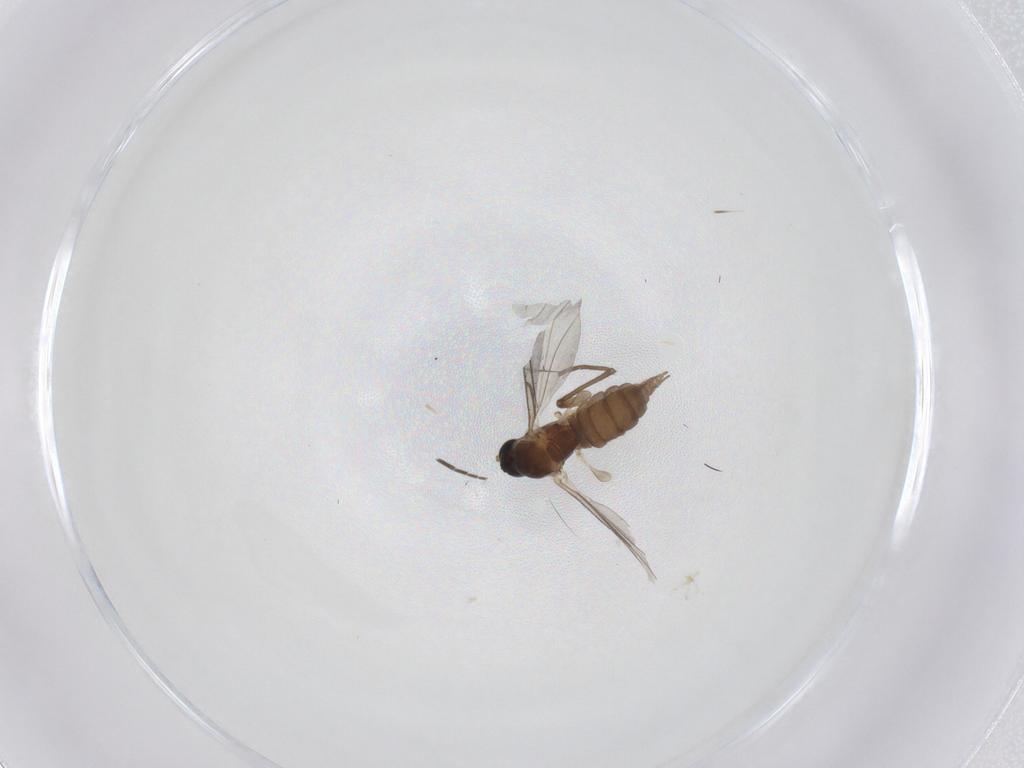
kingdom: Animalia
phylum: Arthropoda
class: Insecta
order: Diptera
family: Sciaridae
